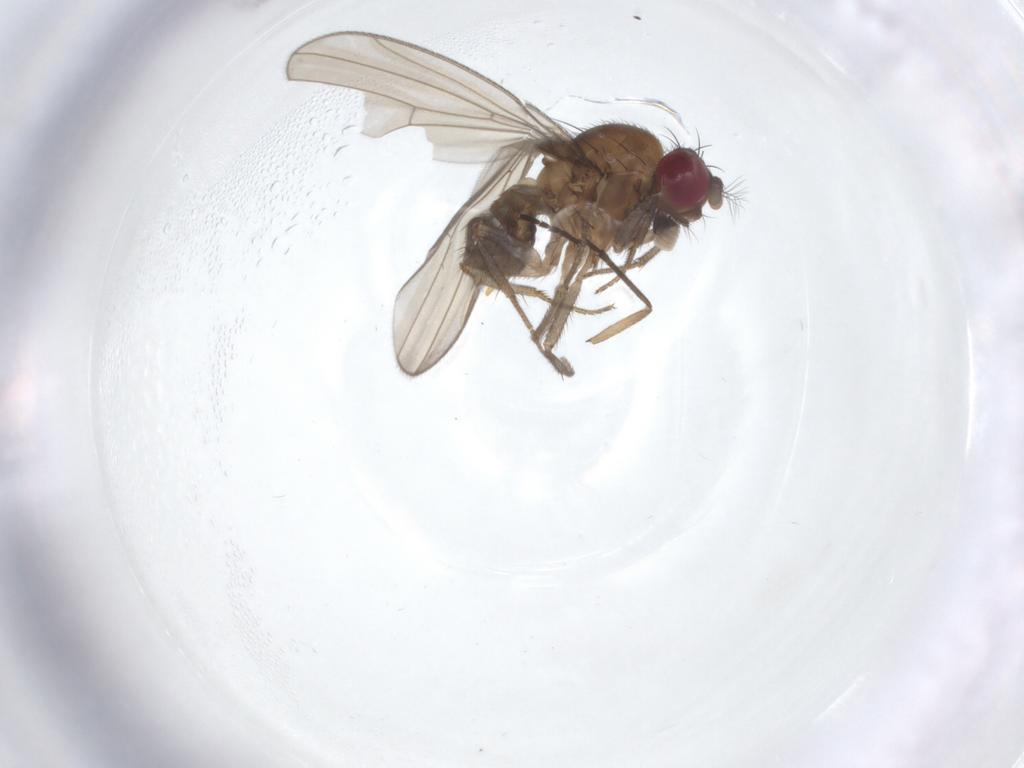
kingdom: Animalia
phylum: Arthropoda
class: Insecta
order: Diptera
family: Drosophilidae
